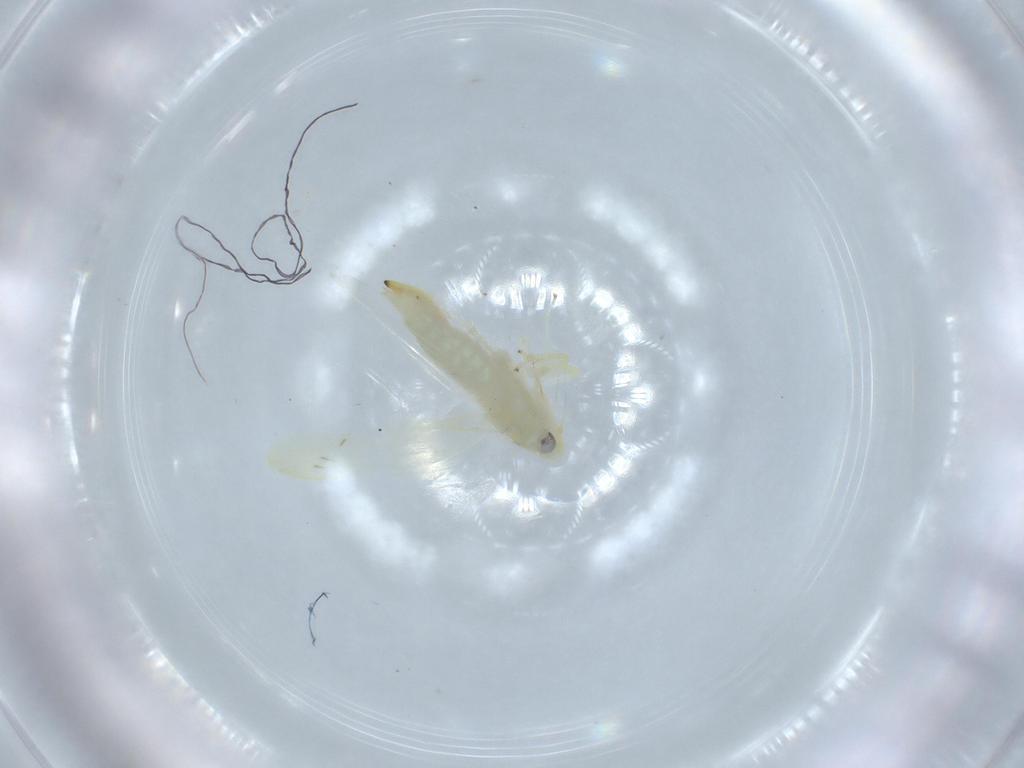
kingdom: Animalia
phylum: Arthropoda
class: Insecta
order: Hemiptera
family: Cicadellidae
